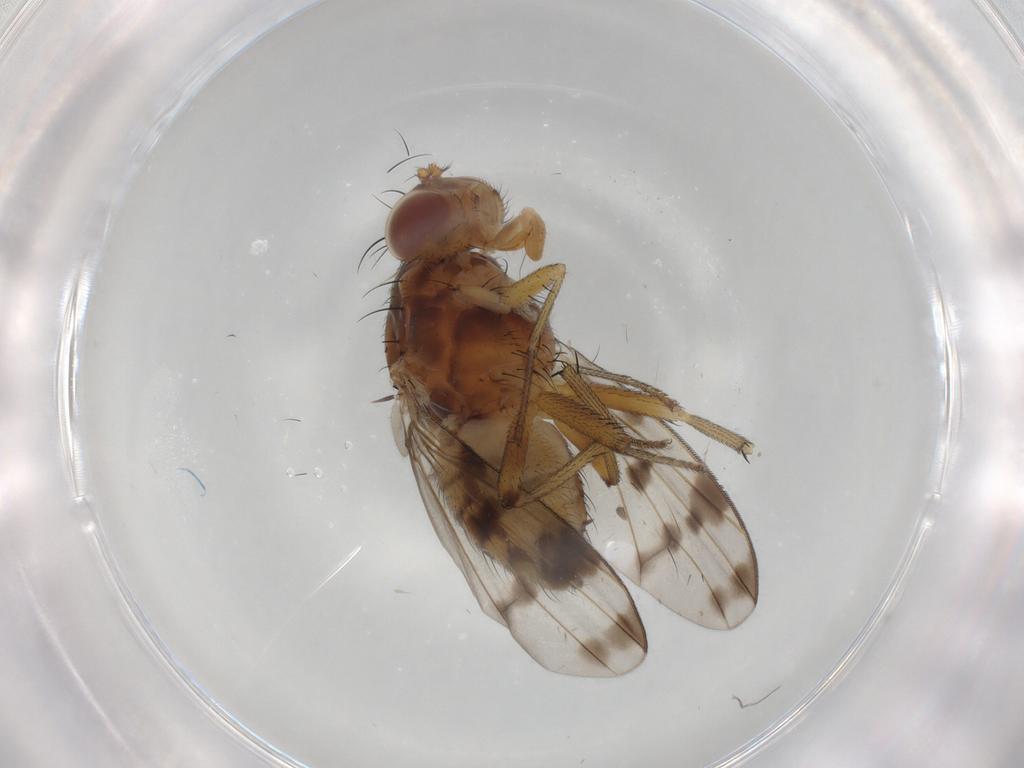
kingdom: Animalia
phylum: Arthropoda
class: Insecta
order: Diptera
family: Cecidomyiidae
